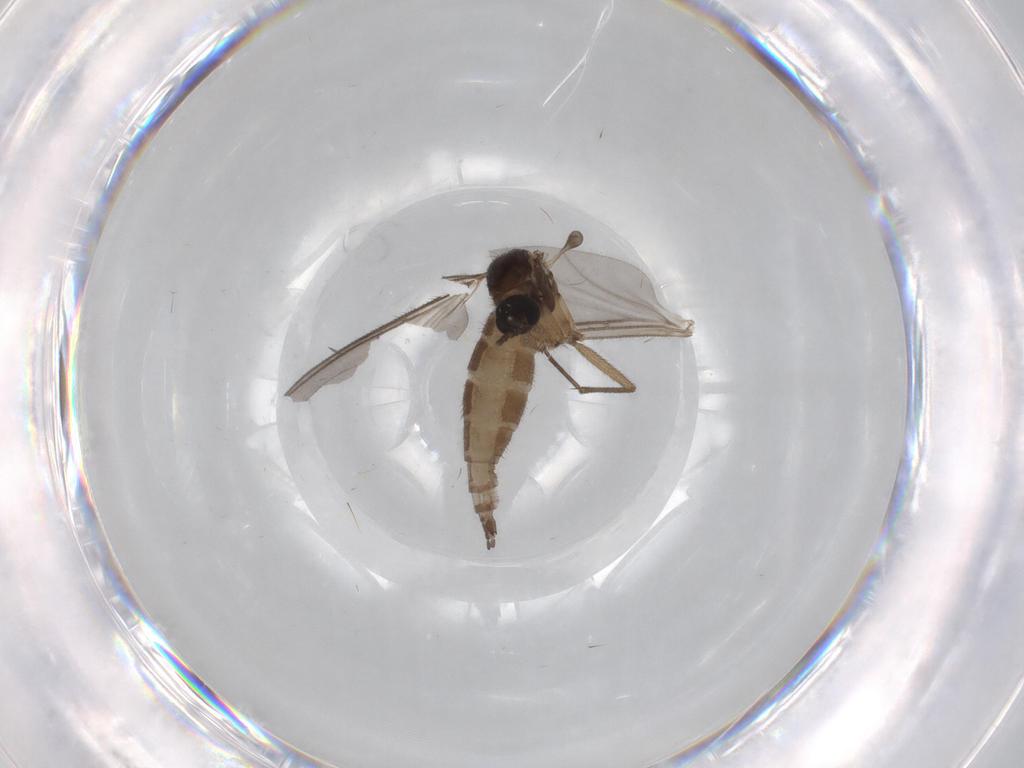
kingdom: Animalia
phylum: Arthropoda
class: Insecta
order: Diptera
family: Sciaridae
